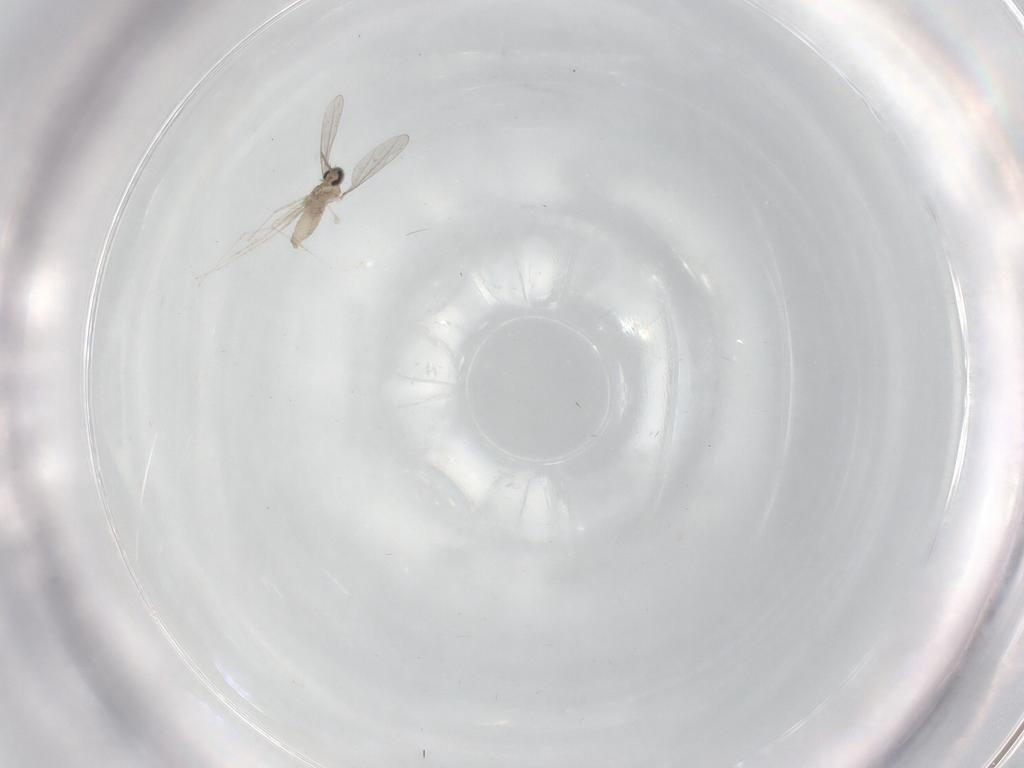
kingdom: Animalia
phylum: Arthropoda
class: Insecta
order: Diptera
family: Cecidomyiidae
